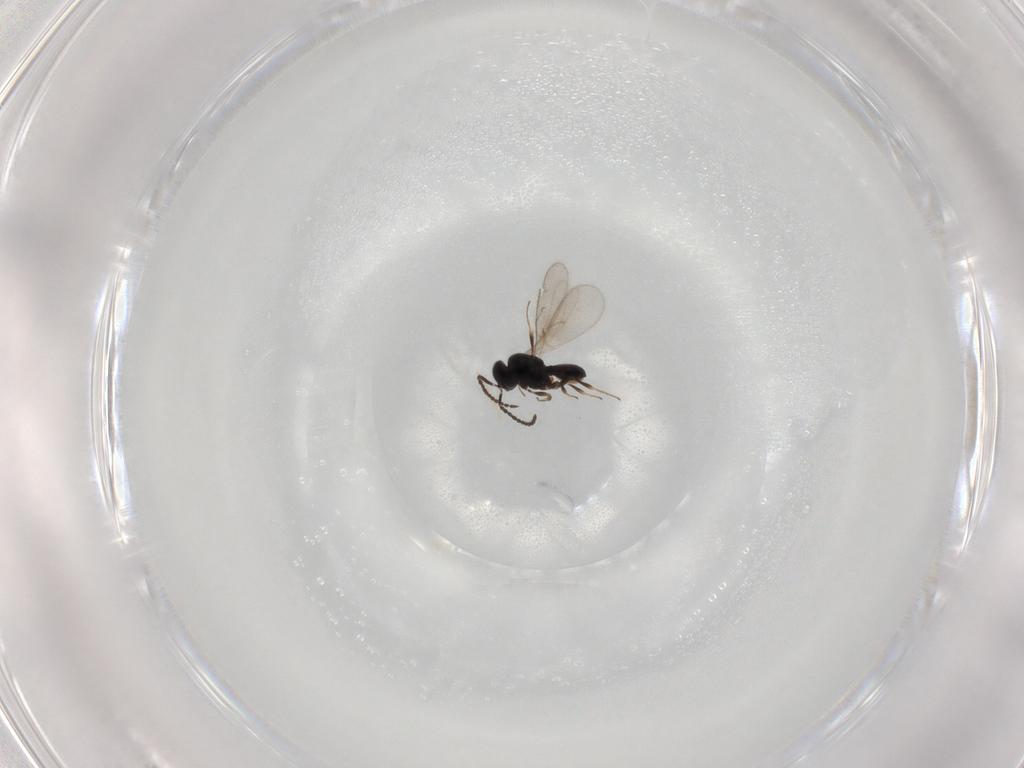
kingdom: Animalia
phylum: Arthropoda
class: Insecta
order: Hymenoptera
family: Scelionidae
